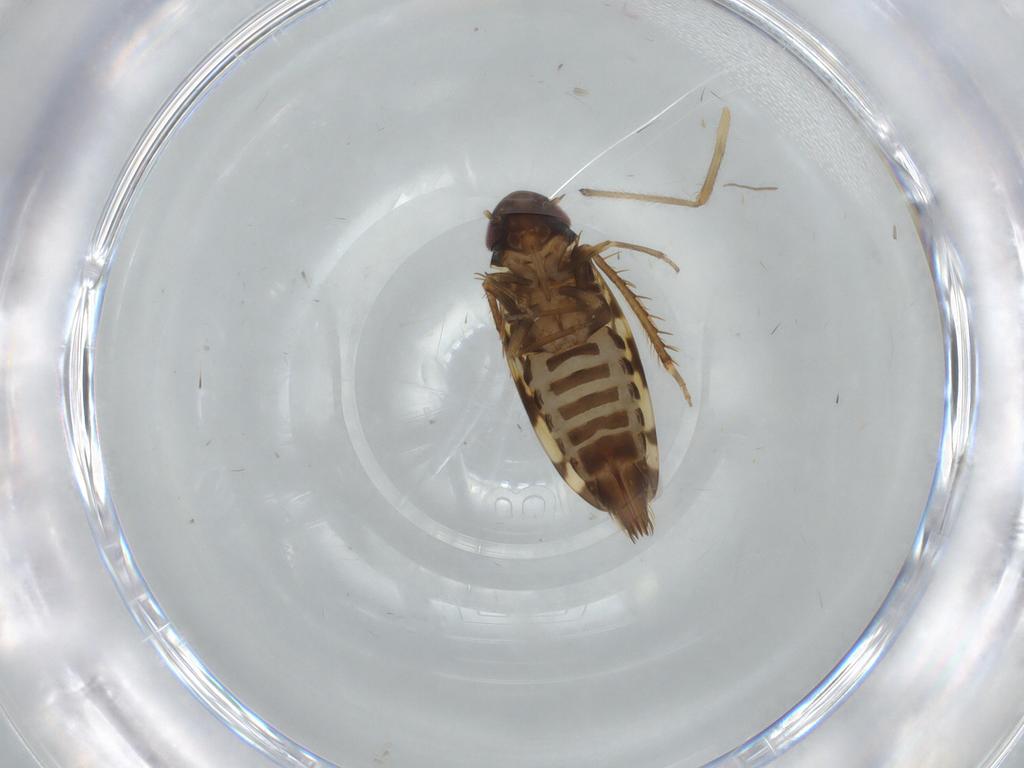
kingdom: Animalia
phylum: Arthropoda
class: Insecta
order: Hemiptera
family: Cicadellidae
